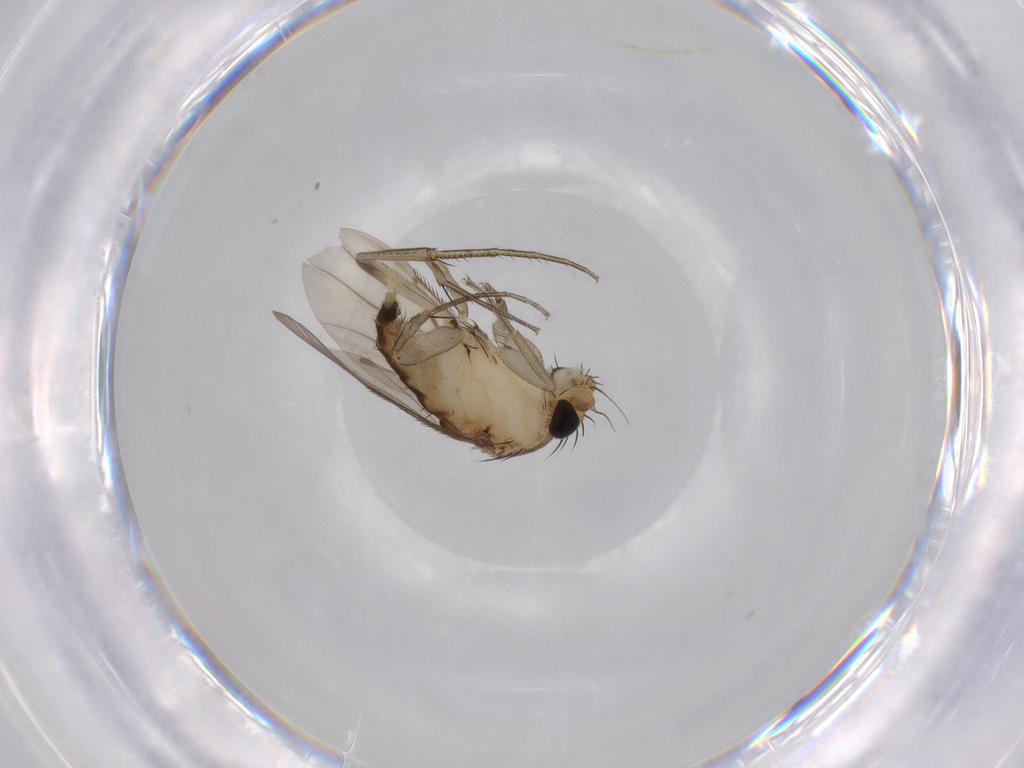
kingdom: Animalia
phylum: Arthropoda
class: Insecta
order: Diptera
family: Phoridae
